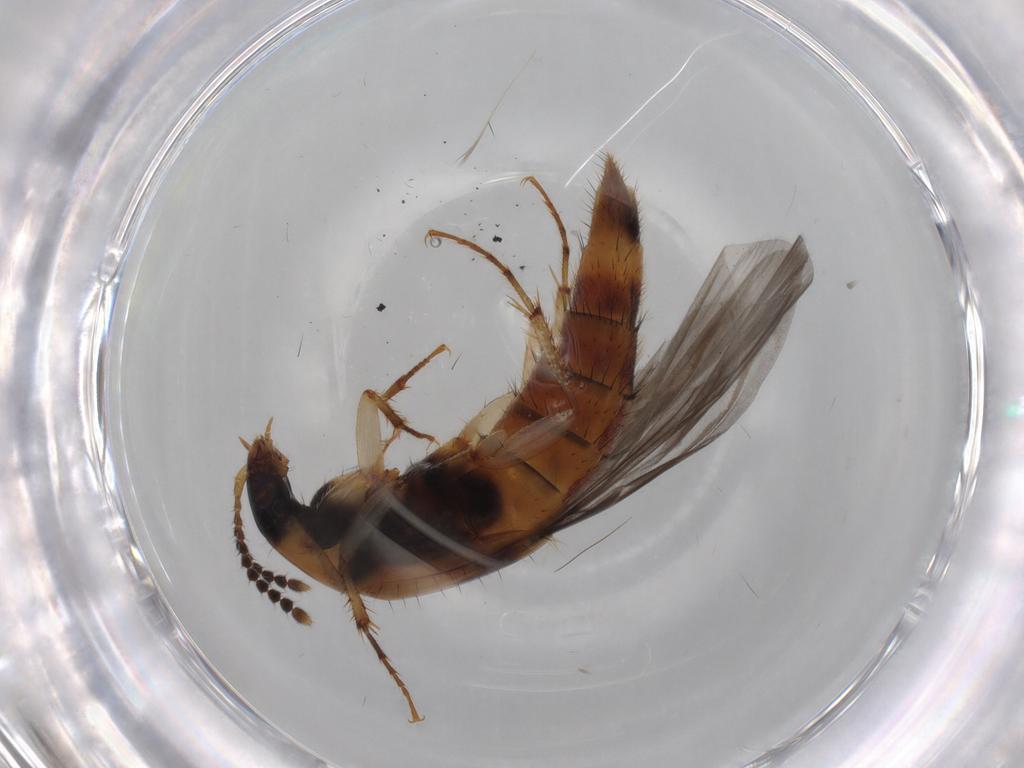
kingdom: Animalia
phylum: Arthropoda
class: Insecta
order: Coleoptera
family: Staphylinidae
